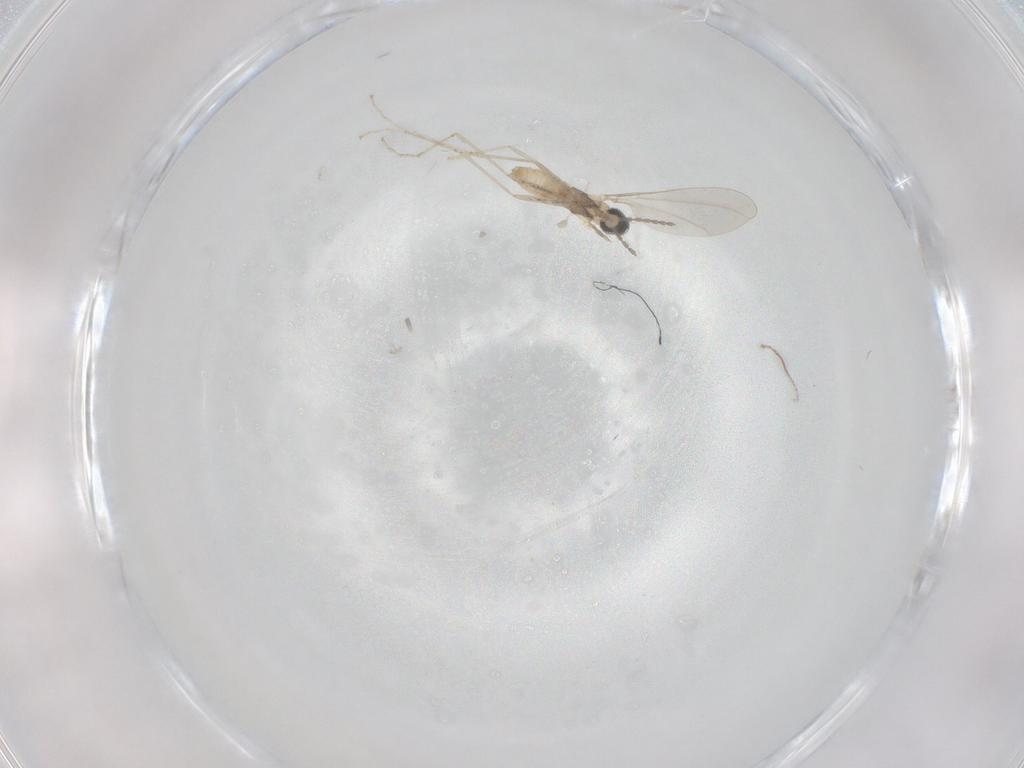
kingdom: Animalia
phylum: Arthropoda
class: Insecta
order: Diptera
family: Cecidomyiidae
